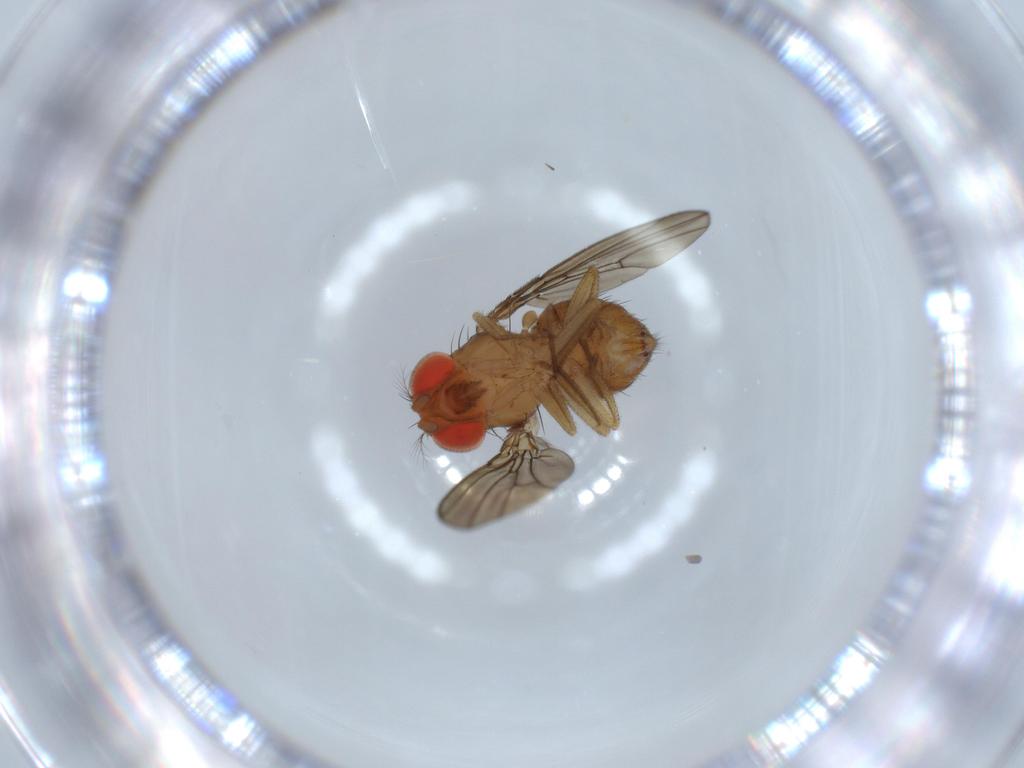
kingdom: Animalia
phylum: Arthropoda
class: Insecta
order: Diptera
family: Drosophilidae
